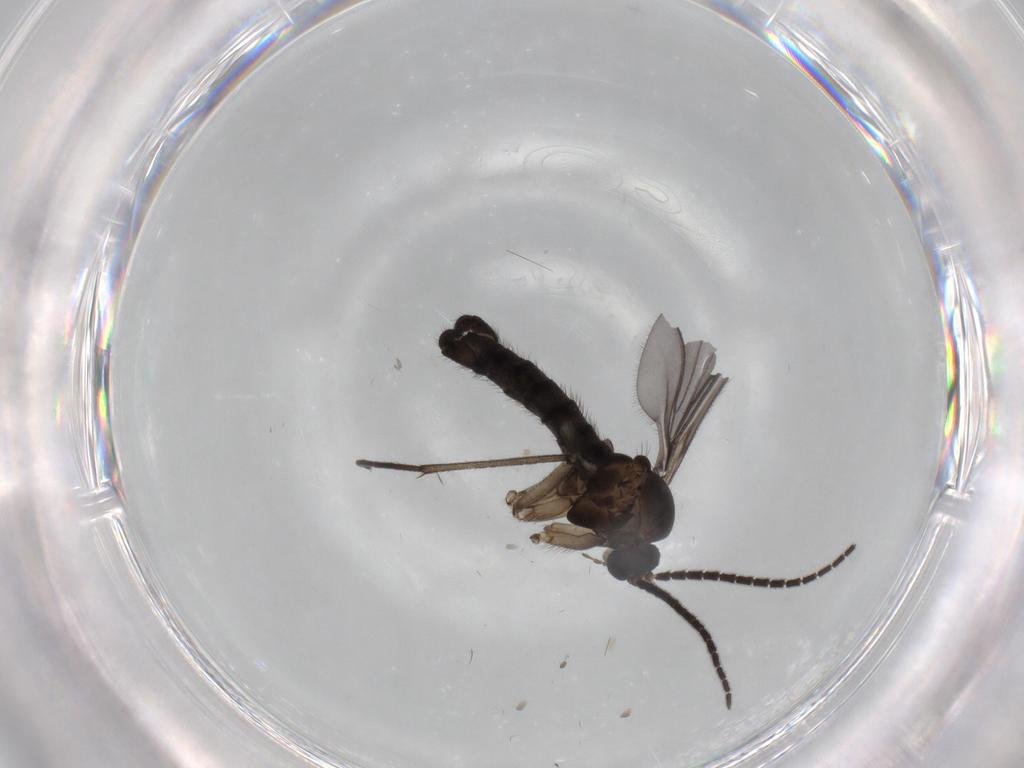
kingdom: Animalia
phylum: Arthropoda
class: Insecta
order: Diptera
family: Sciaridae
